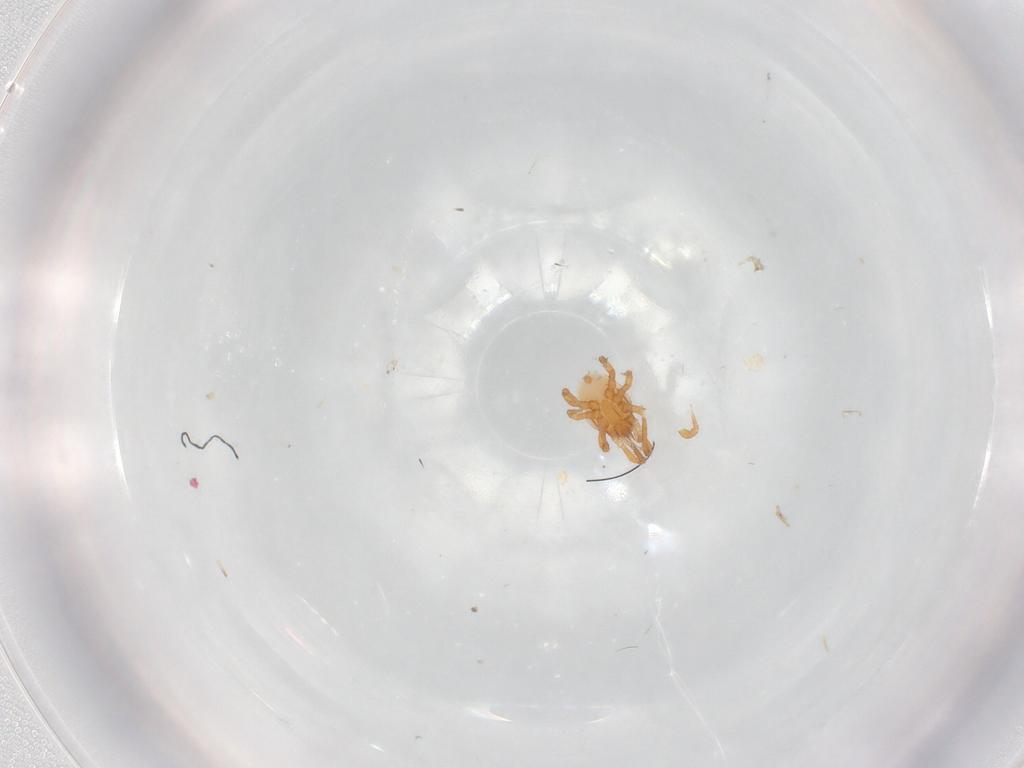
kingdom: Animalia
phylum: Arthropoda
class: Arachnida
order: Mesostigmata
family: Parasitidae
